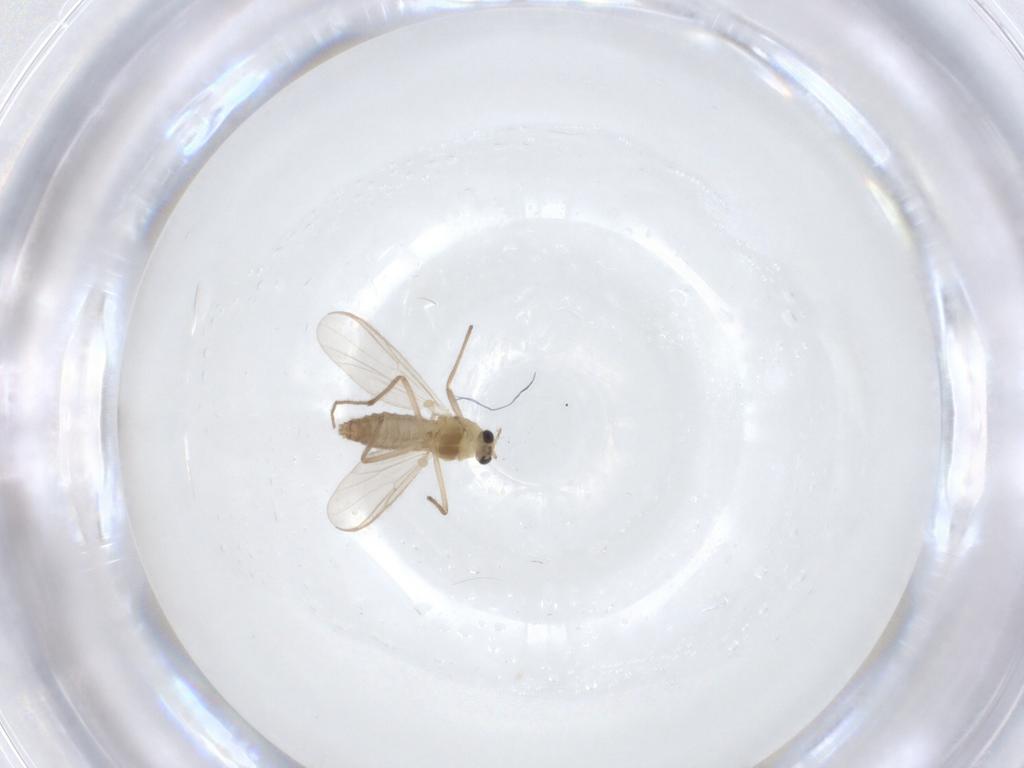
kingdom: Animalia
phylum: Arthropoda
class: Insecta
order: Diptera
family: Chironomidae
